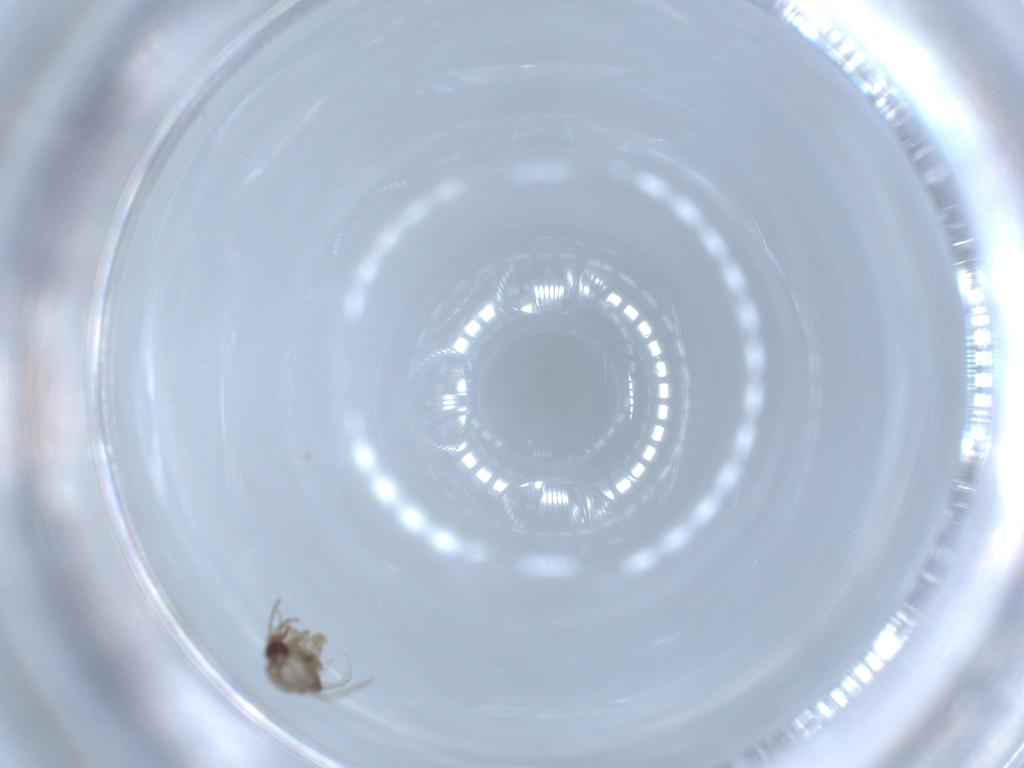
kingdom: Animalia
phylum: Arthropoda
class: Insecta
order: Diptera
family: Psychodidae
